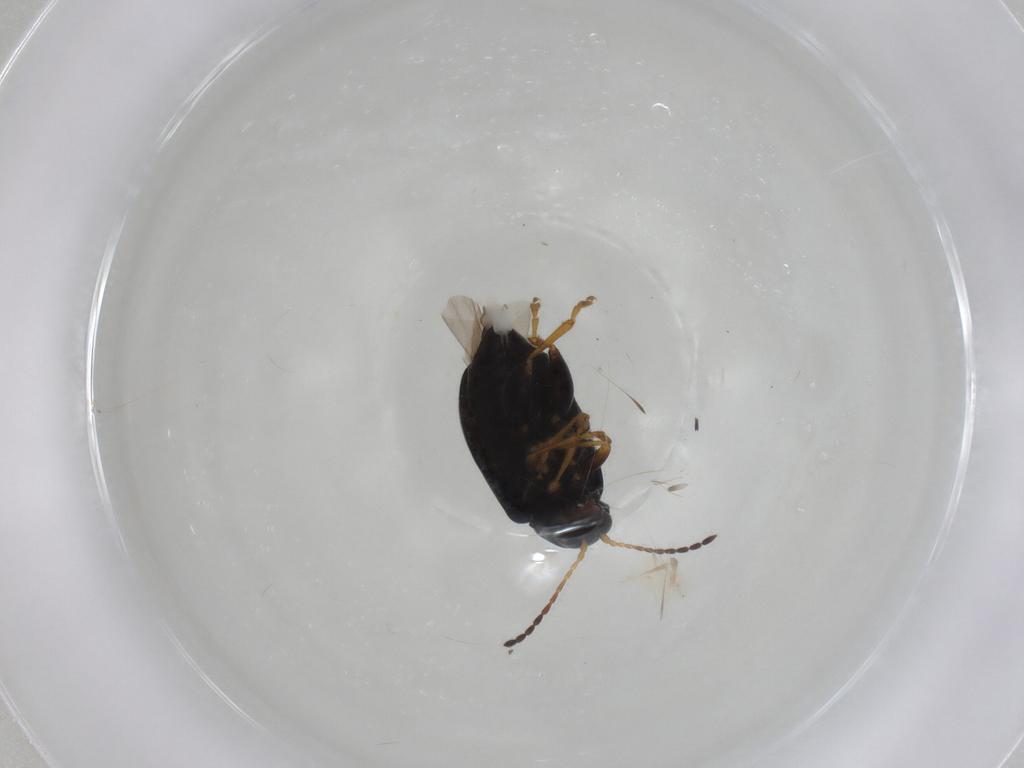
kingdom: Animalia
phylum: Arthropoda
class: Insecta
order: Coleoptera
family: Chrysomelidae
